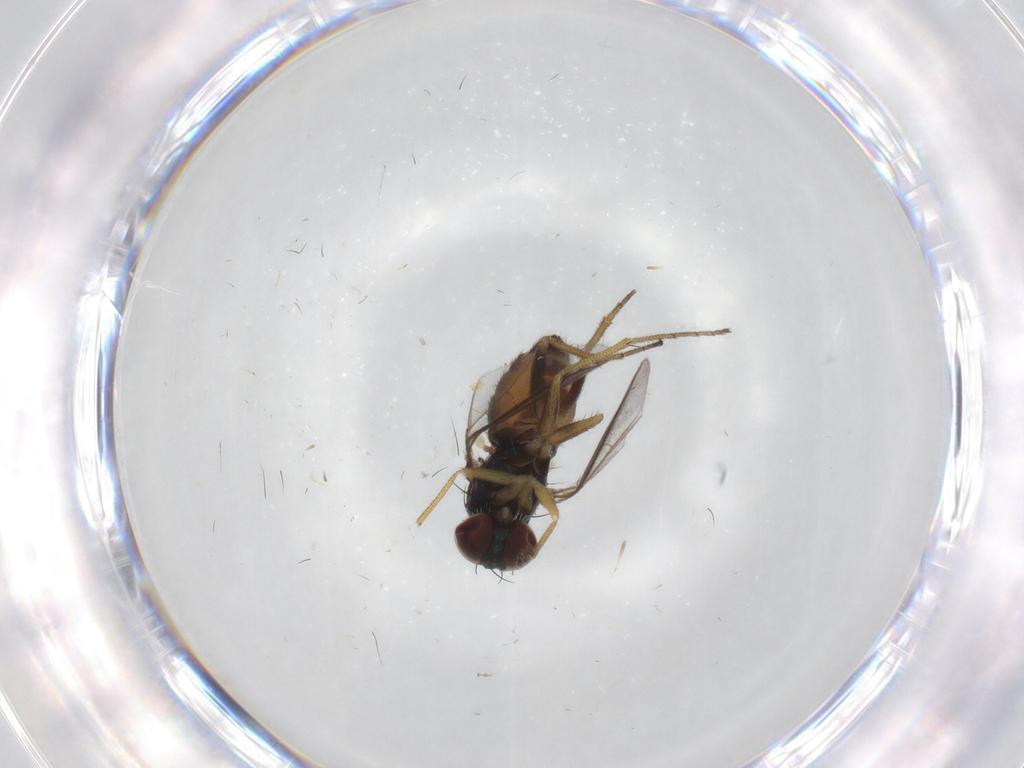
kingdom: Animalia
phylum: Arthropoda
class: Insecta
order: Diptera
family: Dolichopodidae
